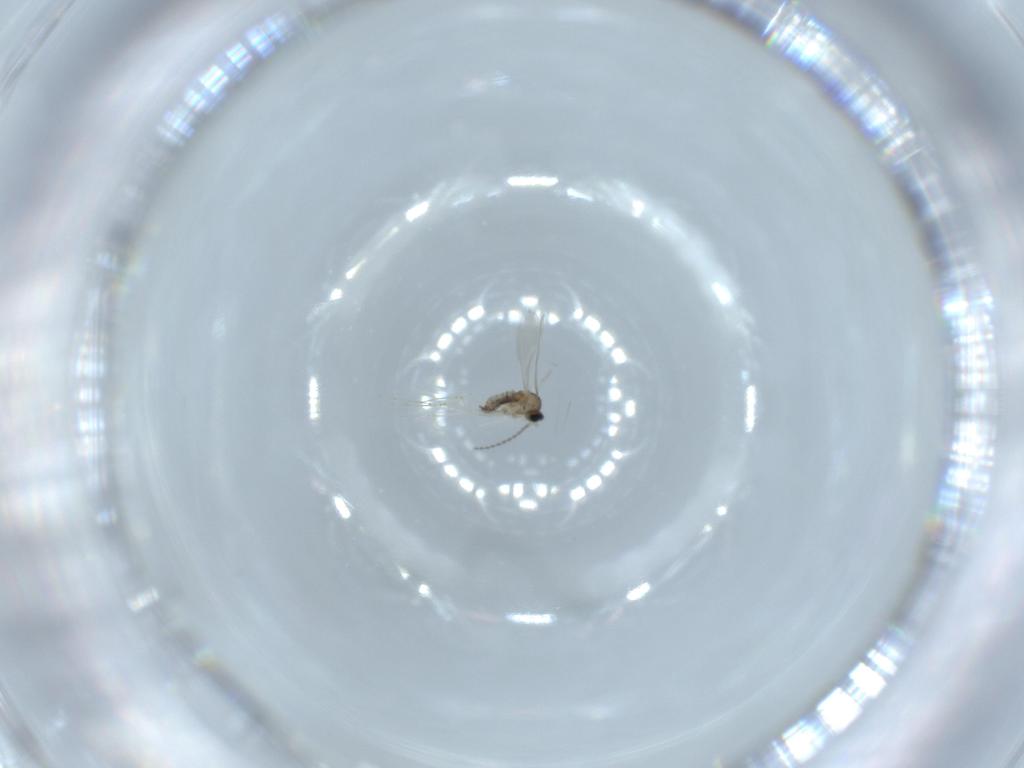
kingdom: Animalia
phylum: Arthropoda
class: Insecta
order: Diptera
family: Cecidomyiidae
